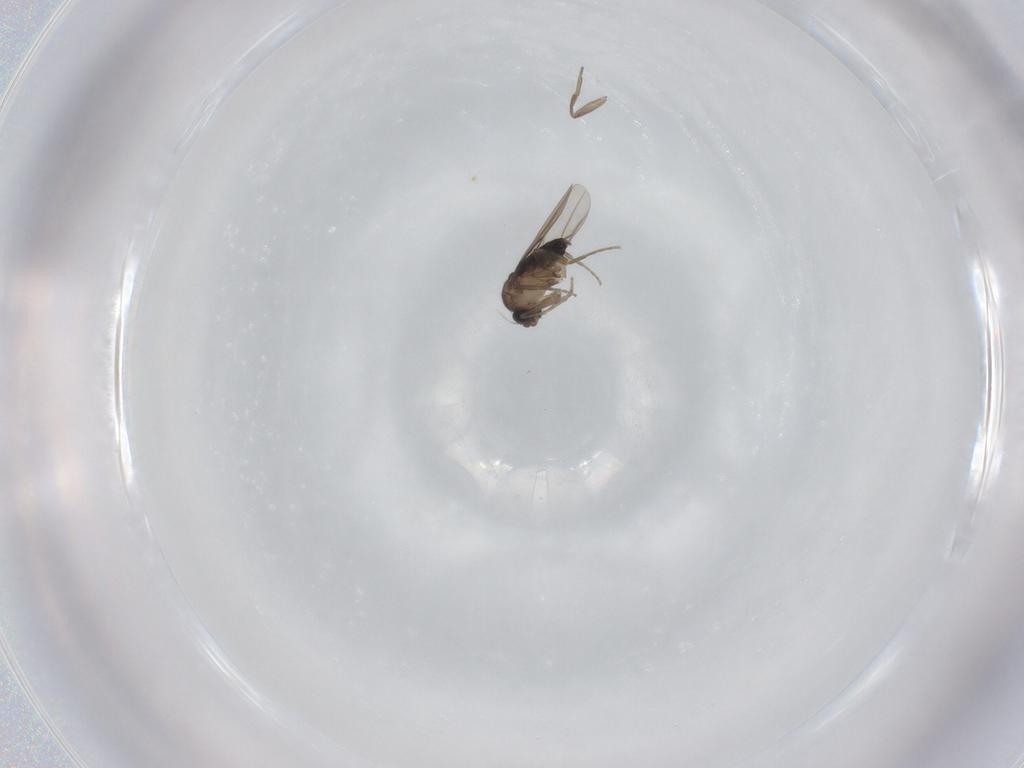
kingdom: Animalia
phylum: Arthropoda
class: Insecta
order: Diptera
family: Phoridae
